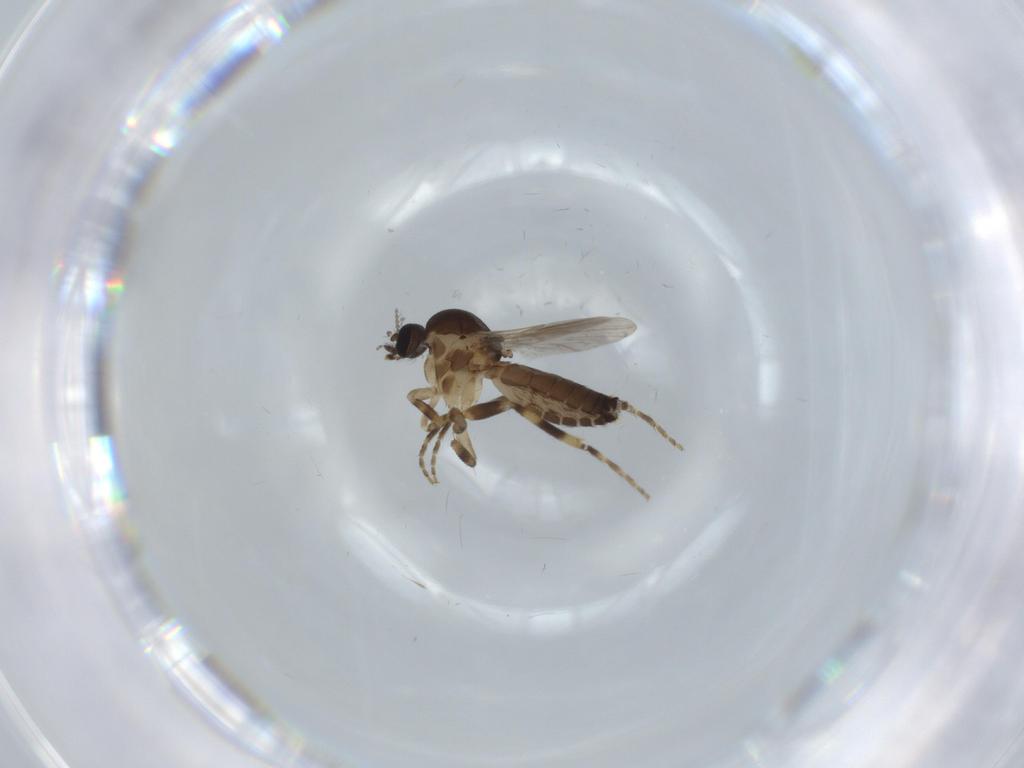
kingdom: Animalia
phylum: Arthropoda
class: Insecta
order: Diptera
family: Ceratopogonidae
